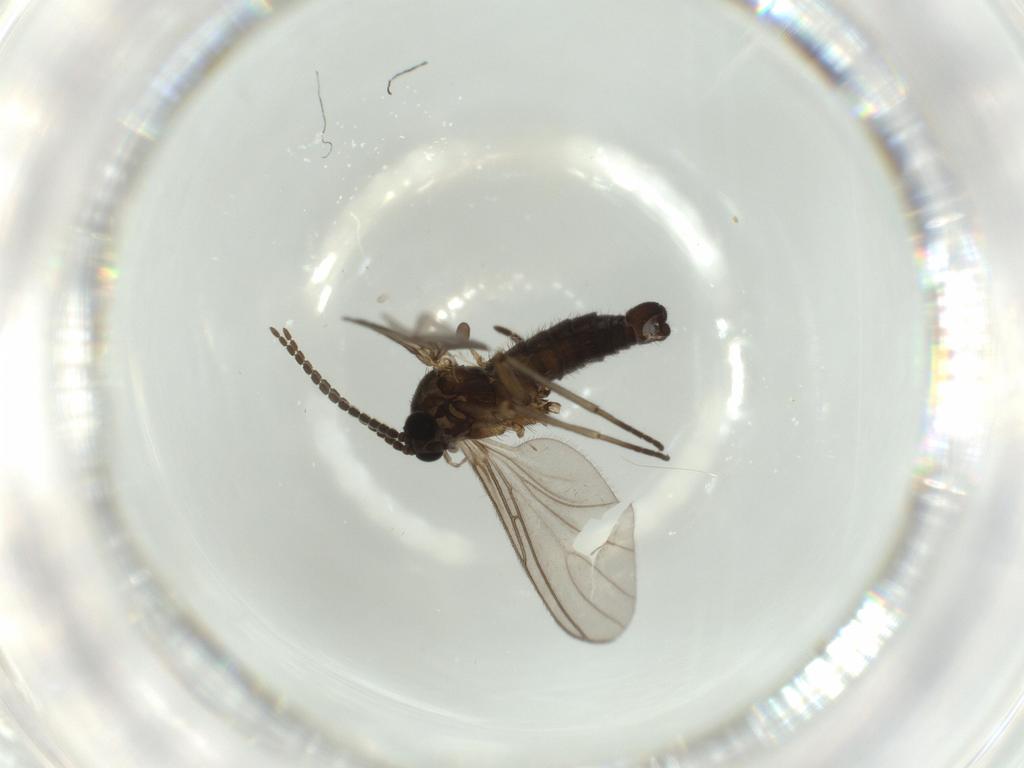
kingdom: Animalia
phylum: Arthropoda
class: Insecta
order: Diptera
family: Sciaridae
